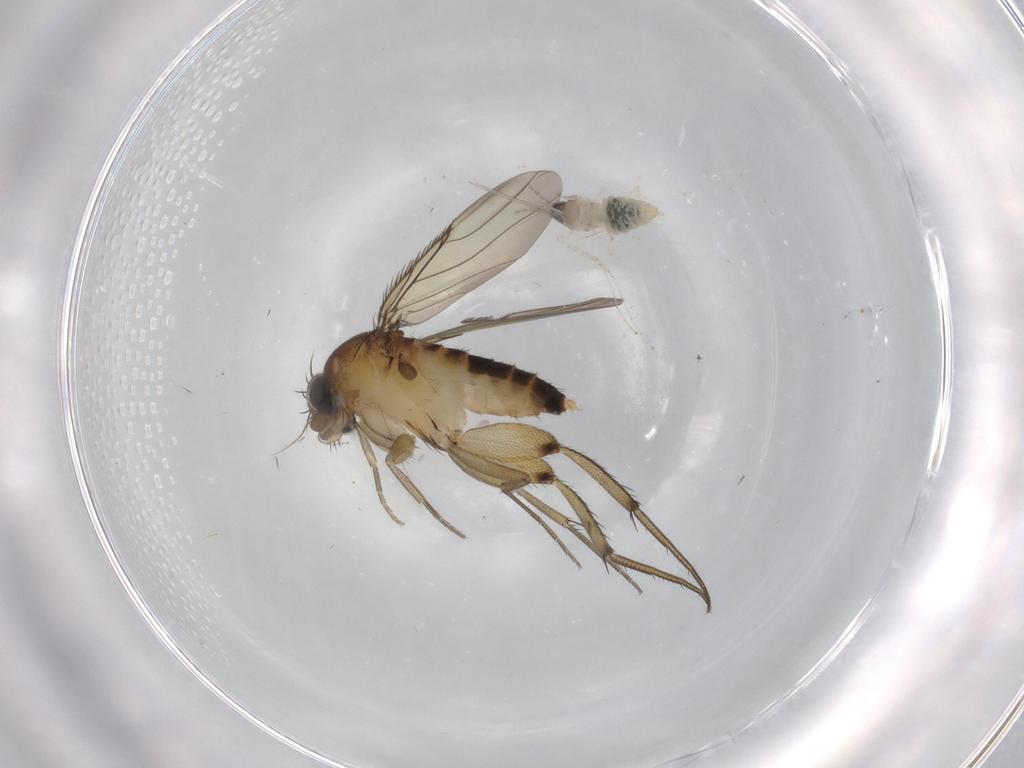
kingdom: Animalia
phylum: Arthropoda
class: Insecta
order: Diptera
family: Phoridae
